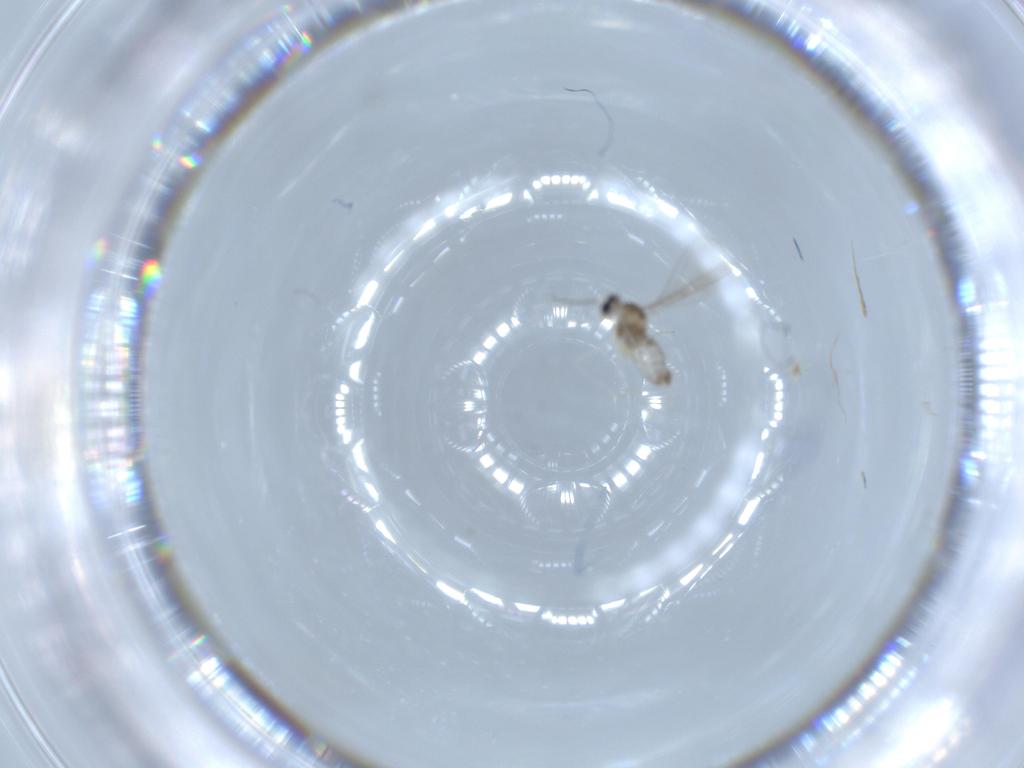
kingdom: Animalia
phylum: Arthropoda
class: Insecta
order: Diptera
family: Cecidomyiidae
